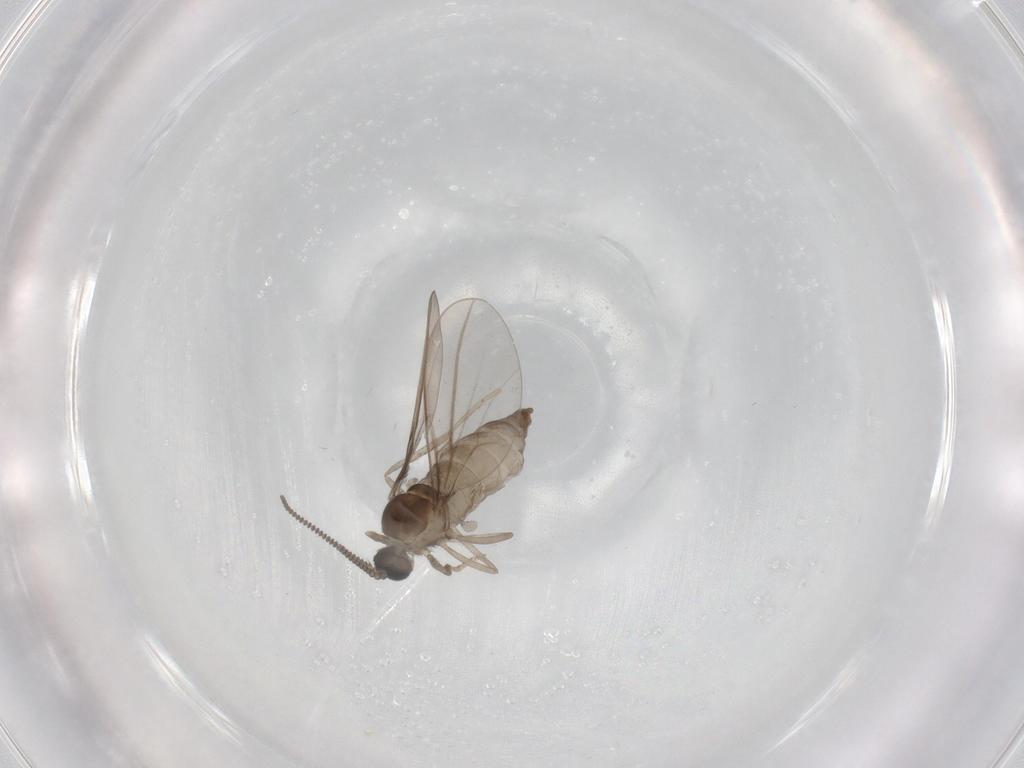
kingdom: Animalia
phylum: Arthropoda
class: Insecta
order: Diptera
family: Cecidomyiidae
